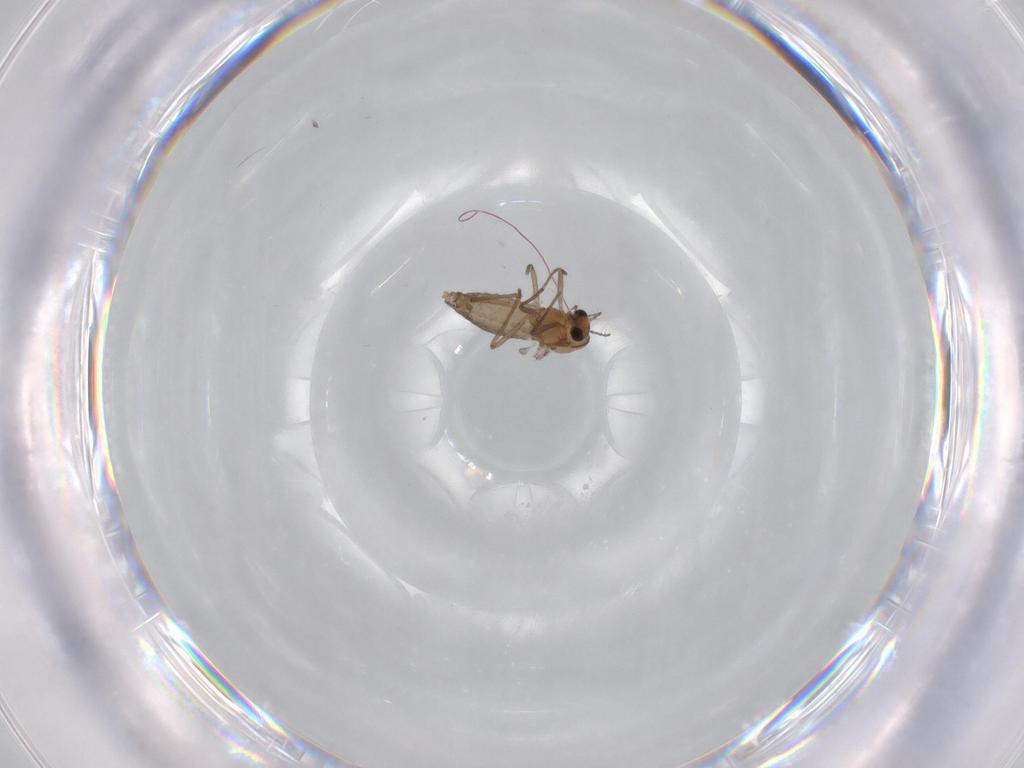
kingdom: Animalia
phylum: Arthropoda
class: Insecta
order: Diptera
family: Chironomidae
